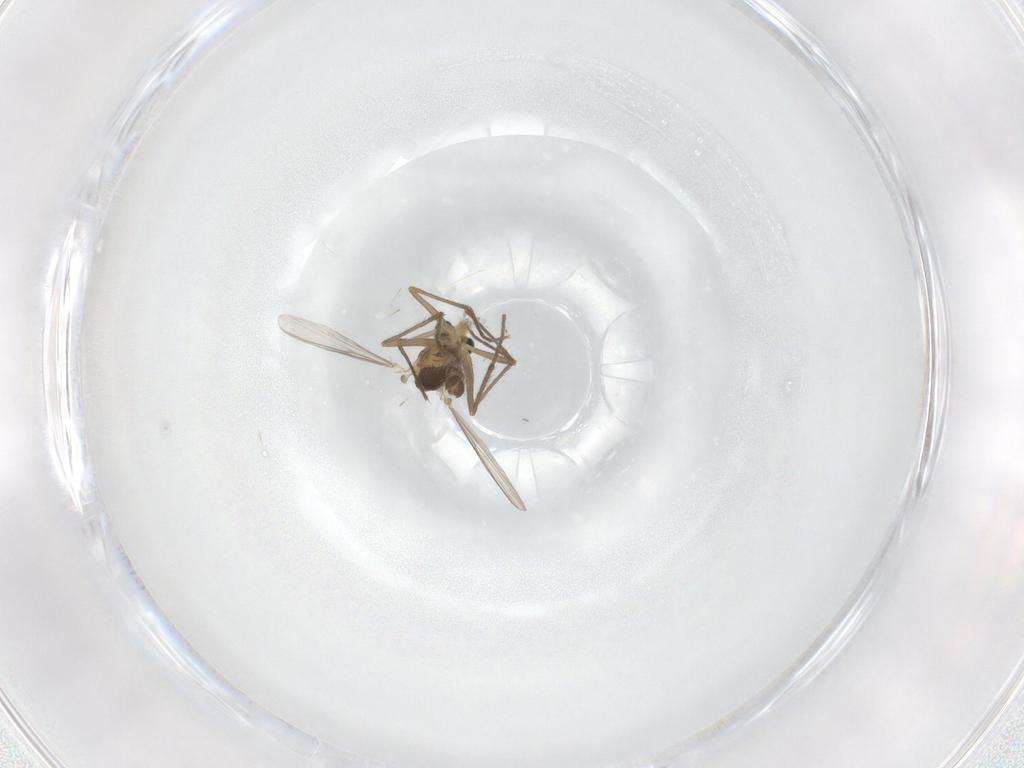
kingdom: Animalia
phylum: Arthropoda
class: Insecta
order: Diptera
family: Chironomidae
